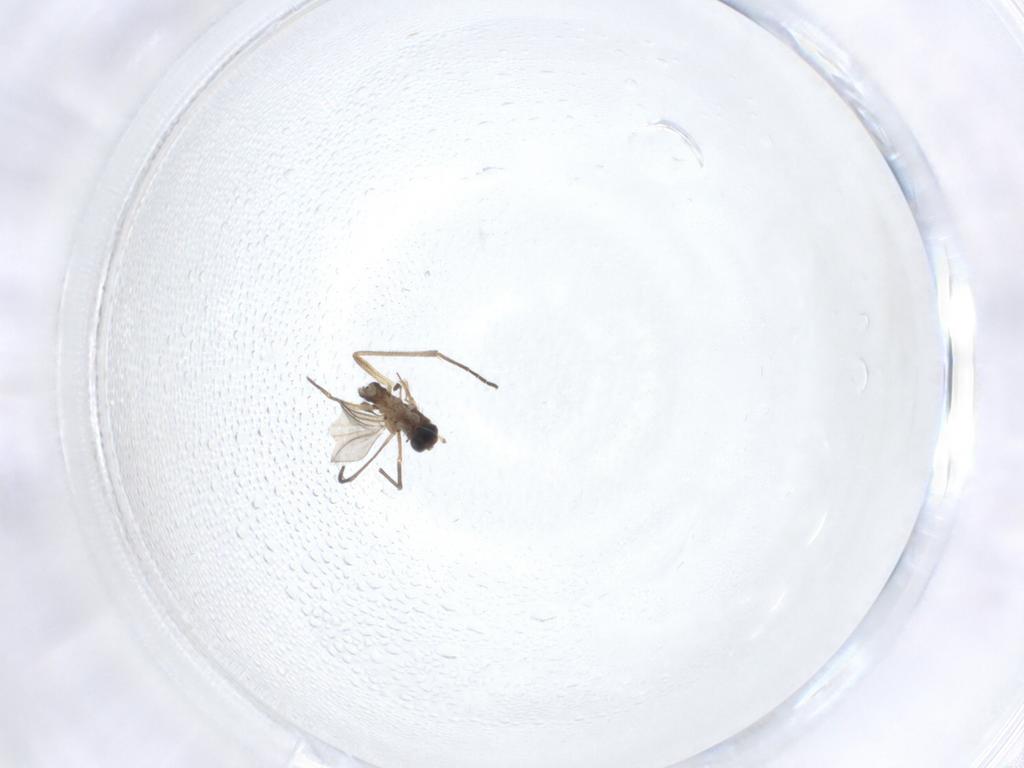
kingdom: Animalia
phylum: Arthropoda
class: Insecta
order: Diptera
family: Sciaridae
